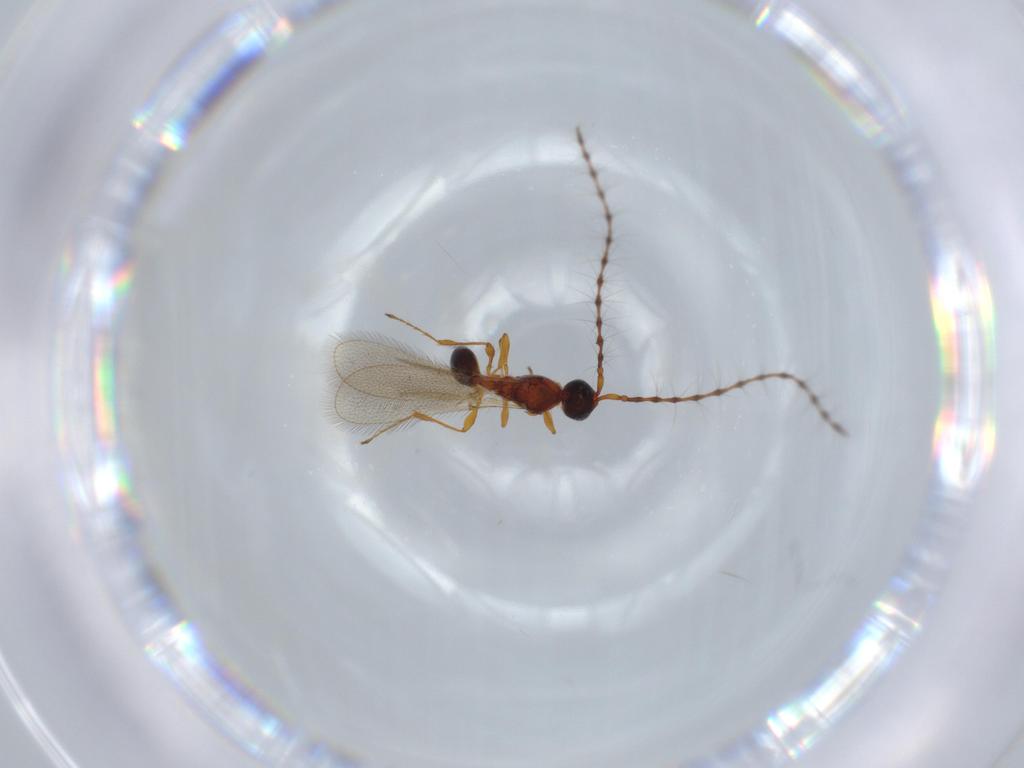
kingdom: Animalia
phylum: Arthropoda
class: Insecta
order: Hymenoptera
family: Diapriidae
